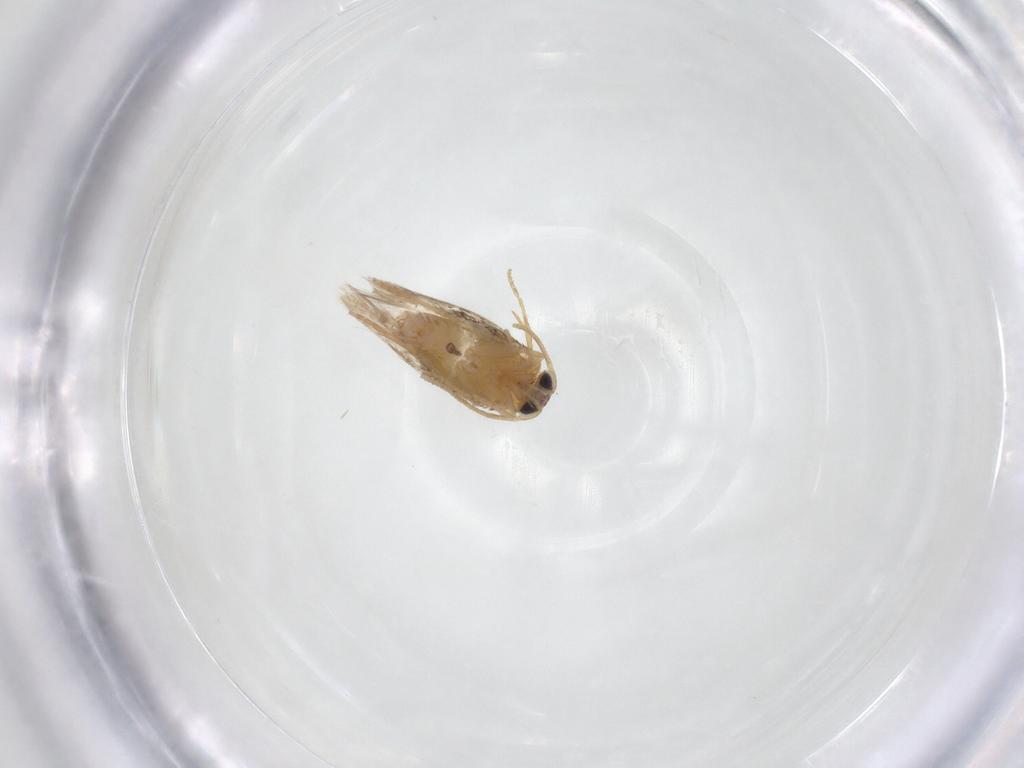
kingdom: Animalia
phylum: Arthropoda
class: Insecta
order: Lepidoptera
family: Nepticulidae
